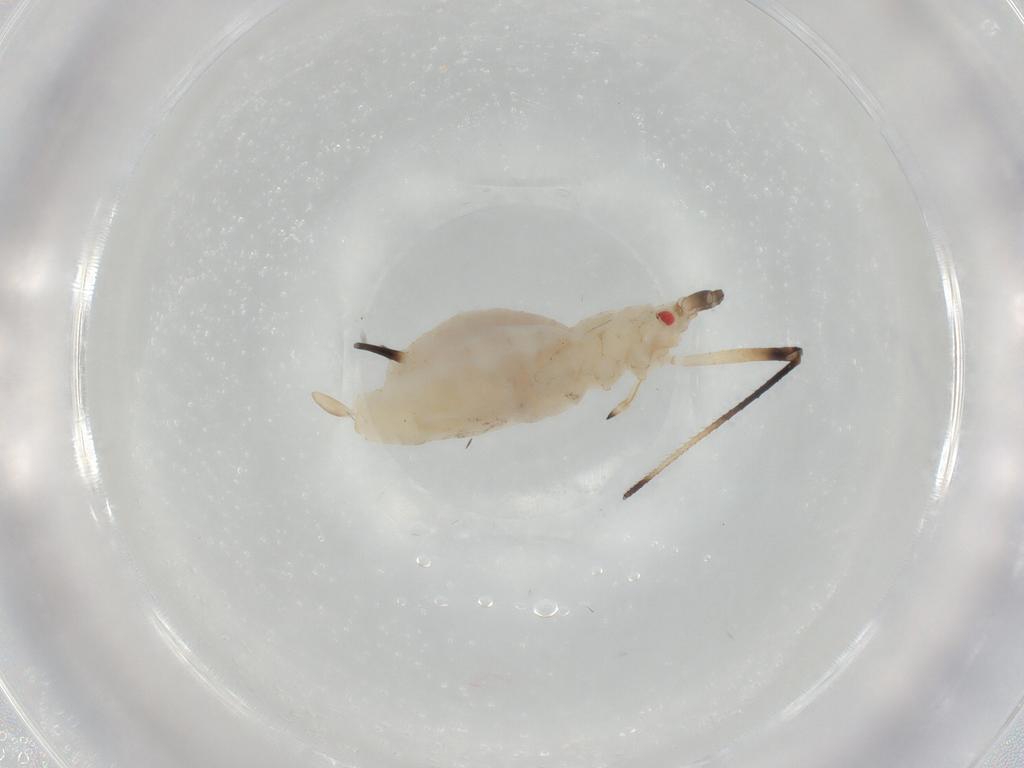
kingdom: Animalia
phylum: Arthropoda
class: Insecta
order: Hemiptera
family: Aphididae
